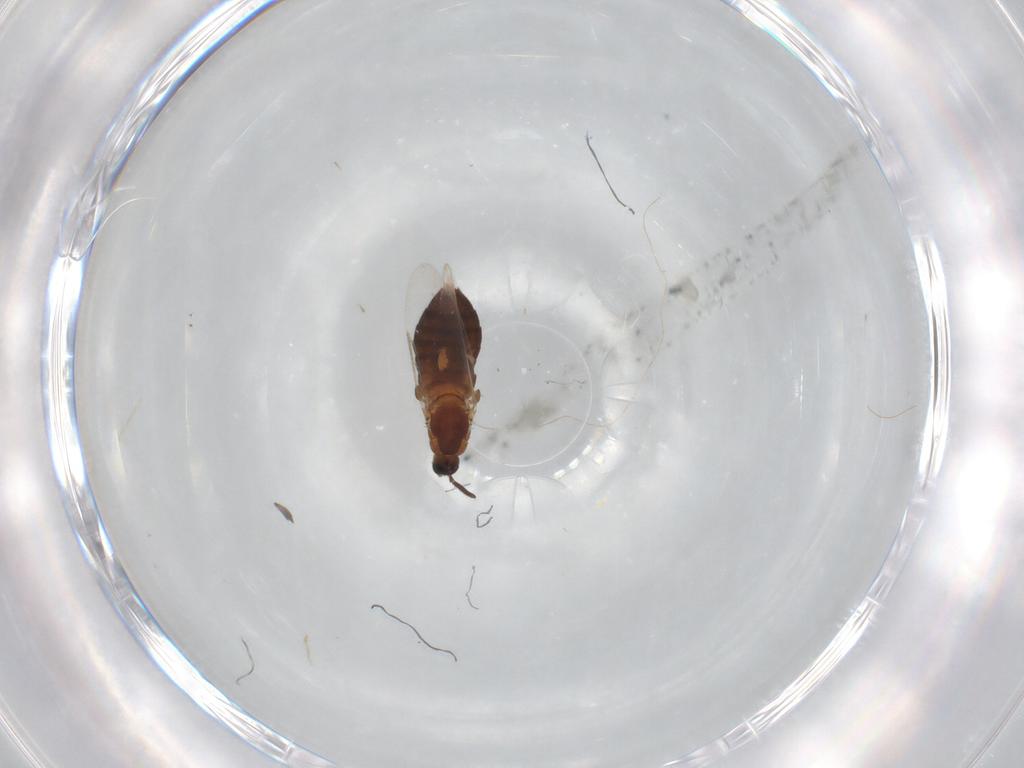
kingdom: Animalia
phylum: Arthropoda
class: Insecta
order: Diptera
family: Scatopsidae
